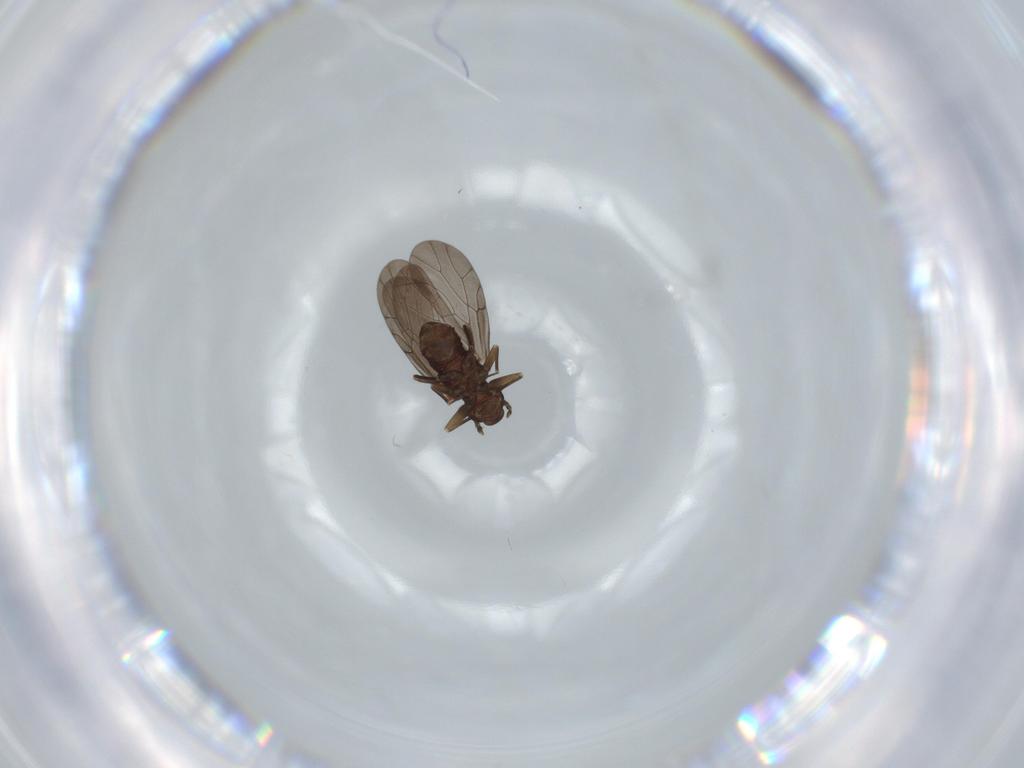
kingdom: Animalia
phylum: Arthropoda
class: Insecta
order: Psocodea
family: Lepidopsocidae
